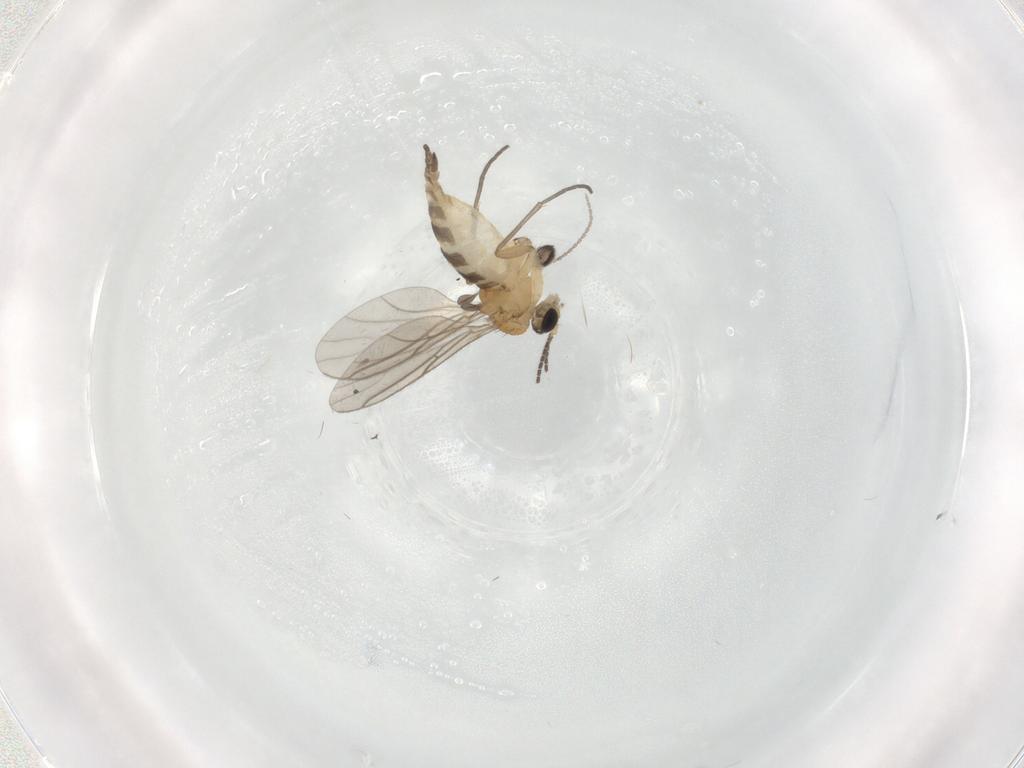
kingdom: Animalia
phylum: Arthropoda
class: Insecta
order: Diptera
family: Cecidomyiidae
